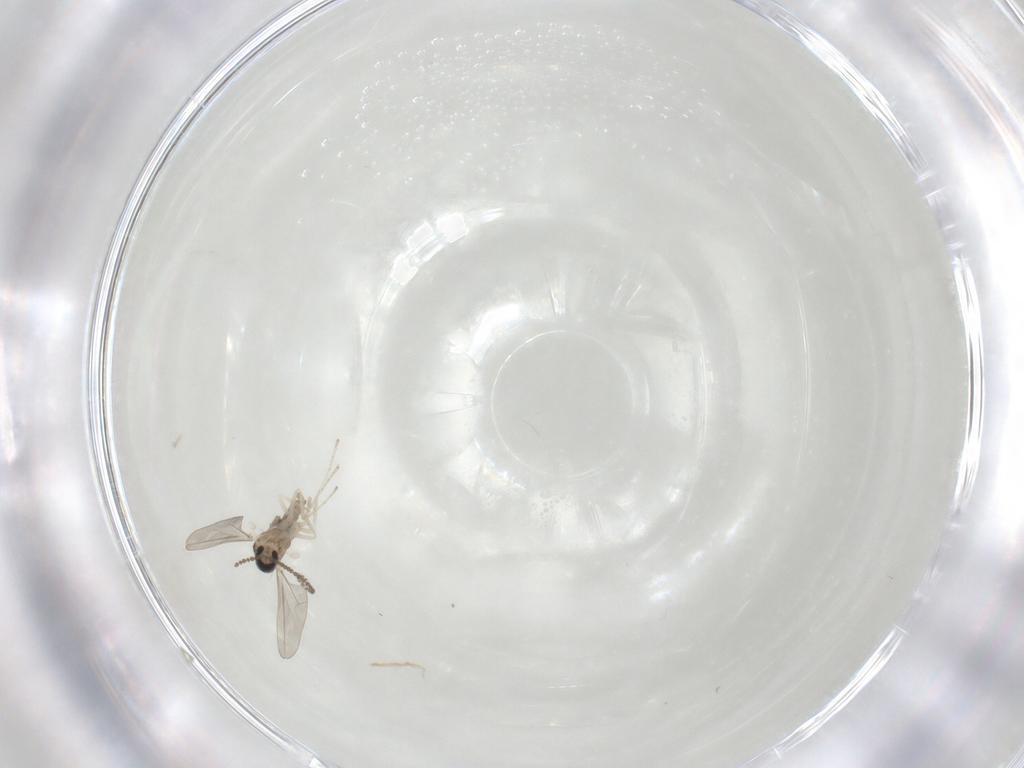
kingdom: Animalia
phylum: Arthropoda
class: Insecta
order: Diptera
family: Cecidomyiidae
